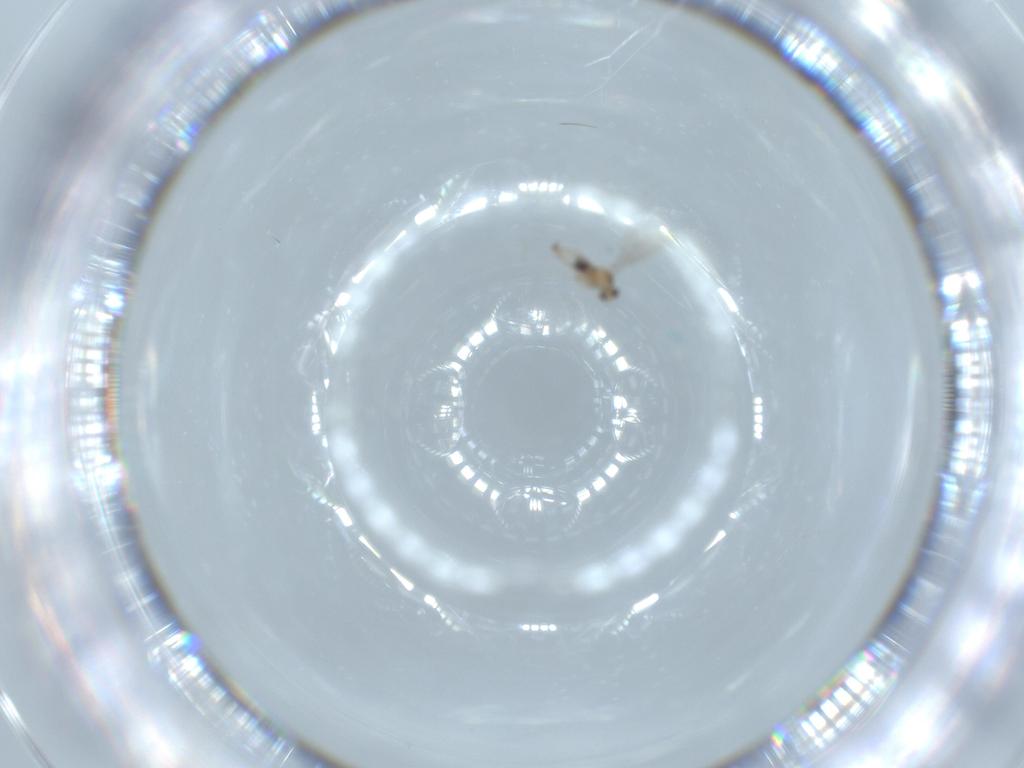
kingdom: Animalia
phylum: Arthropoda
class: Insecta
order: Diptera
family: Cecidomyiidae
